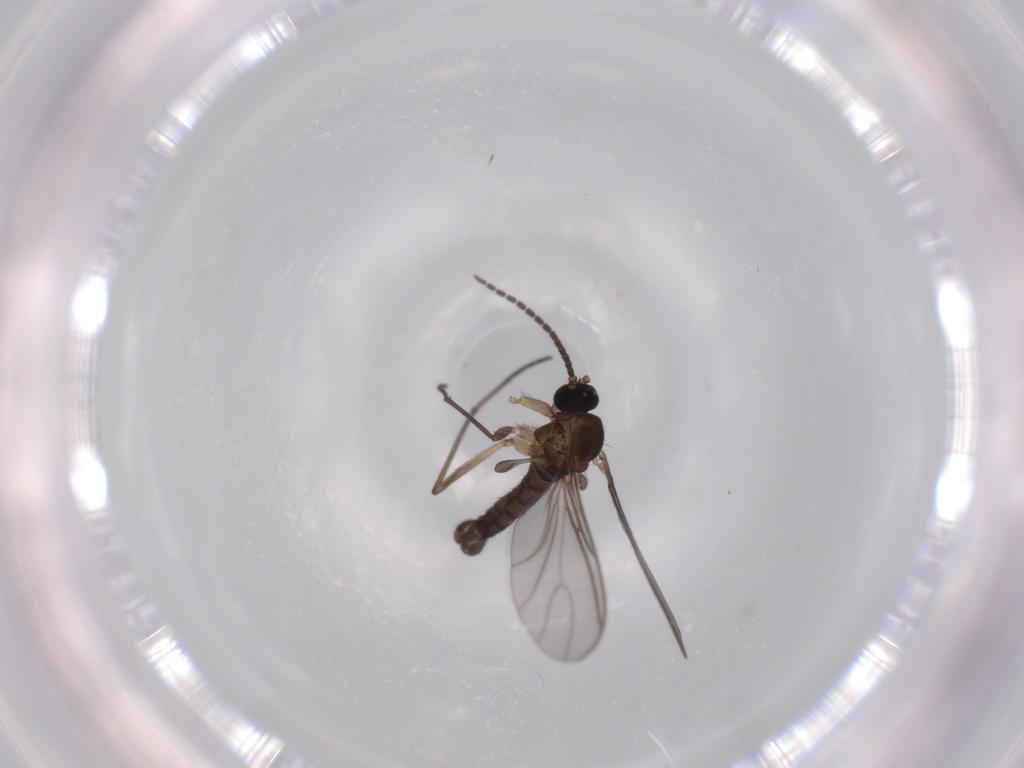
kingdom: Animalia
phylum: Arthropoda
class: Insecta
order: Diptera
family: Sciaridae
